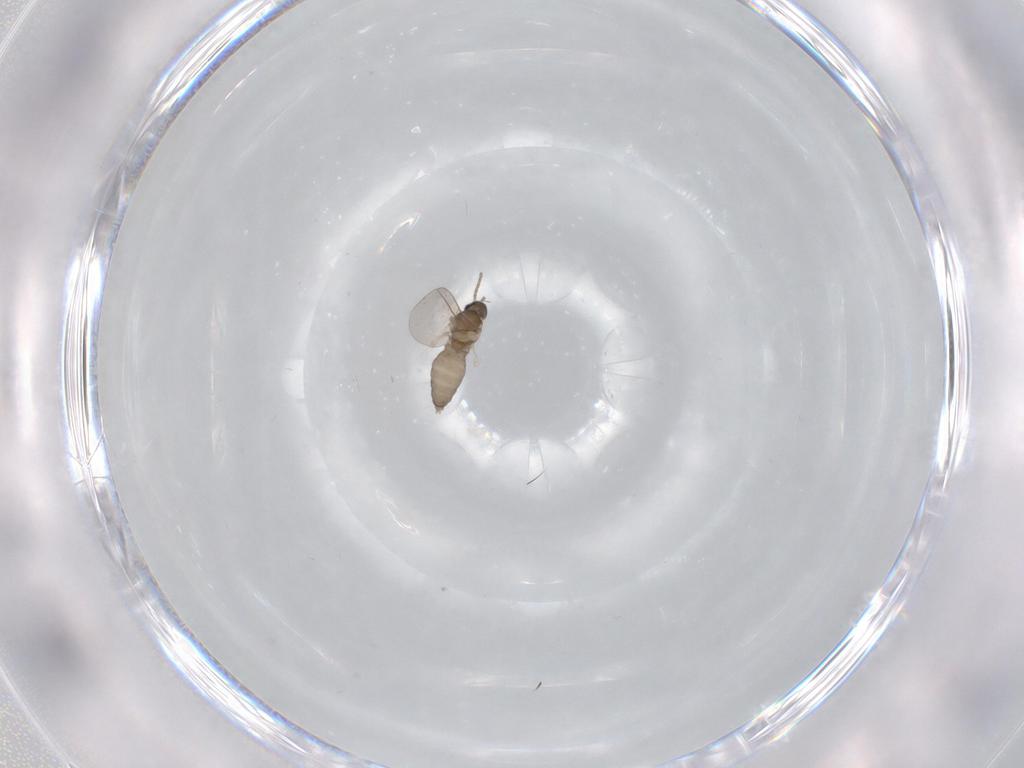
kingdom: Animalia
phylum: Arthropoda
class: Insecta
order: Diptera
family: Cecidomyiidae
